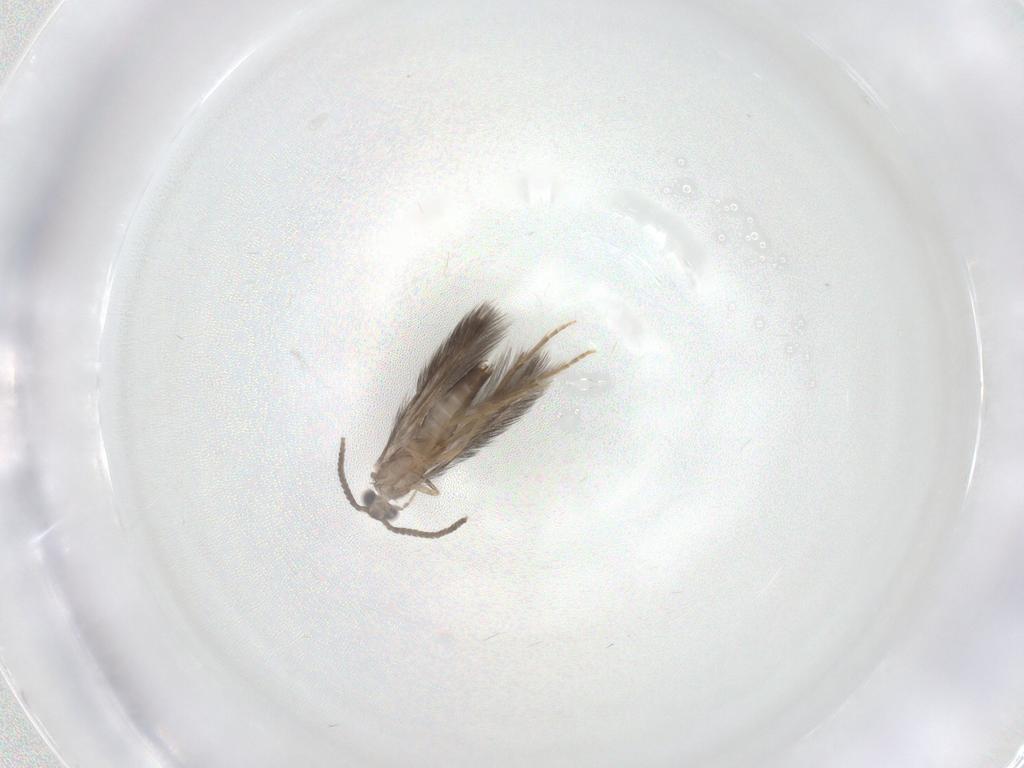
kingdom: Animalia
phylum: Arthropoda
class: Insecta
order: Trichoptera
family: Hydroptilidae
